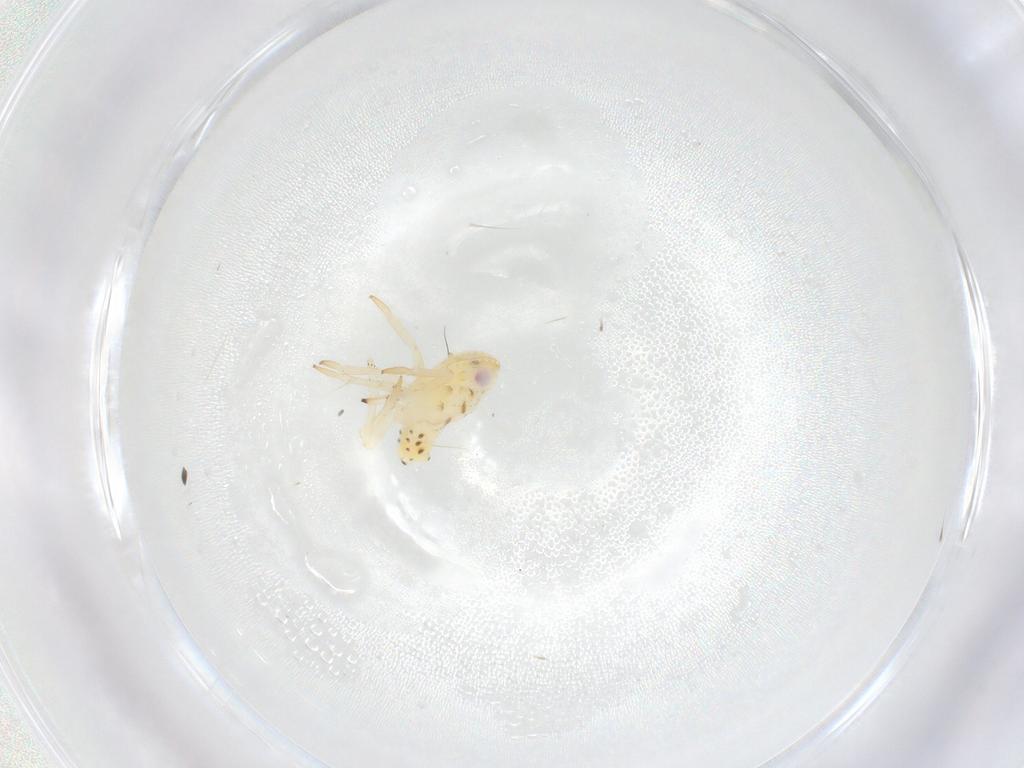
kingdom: Animalia
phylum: Arthropoda
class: Insecta
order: Hemiptera
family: Tropiduchidae
